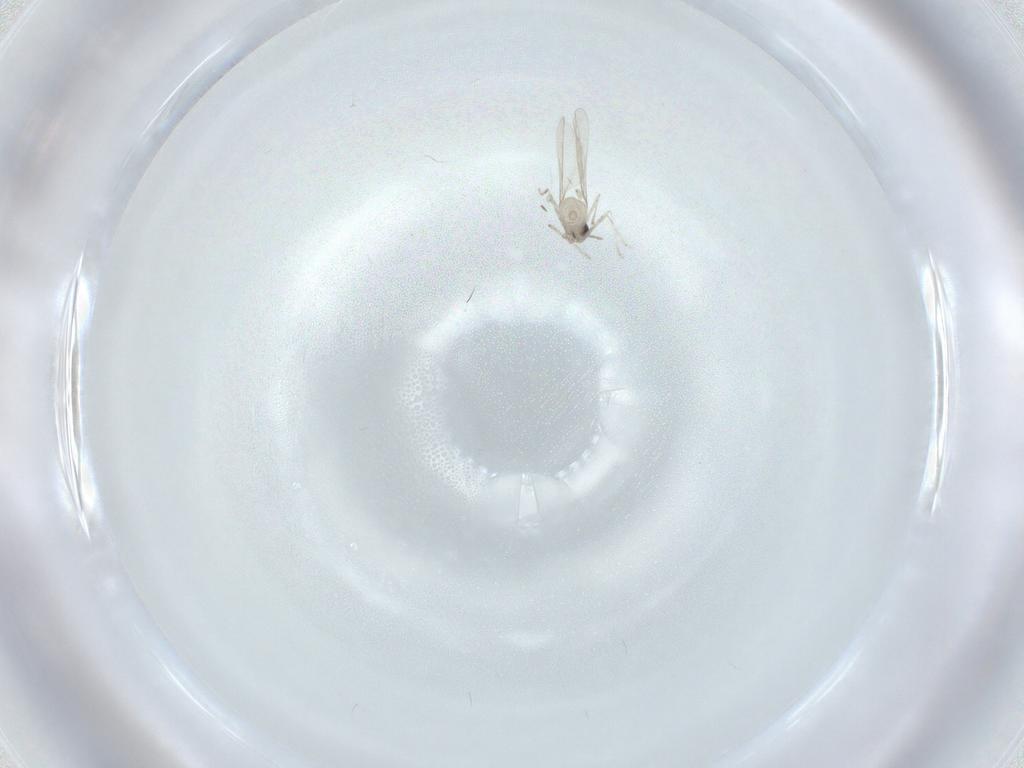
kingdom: Animalia
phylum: Arthropoda
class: Insecta
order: Diptera
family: Cecidomyiidae
